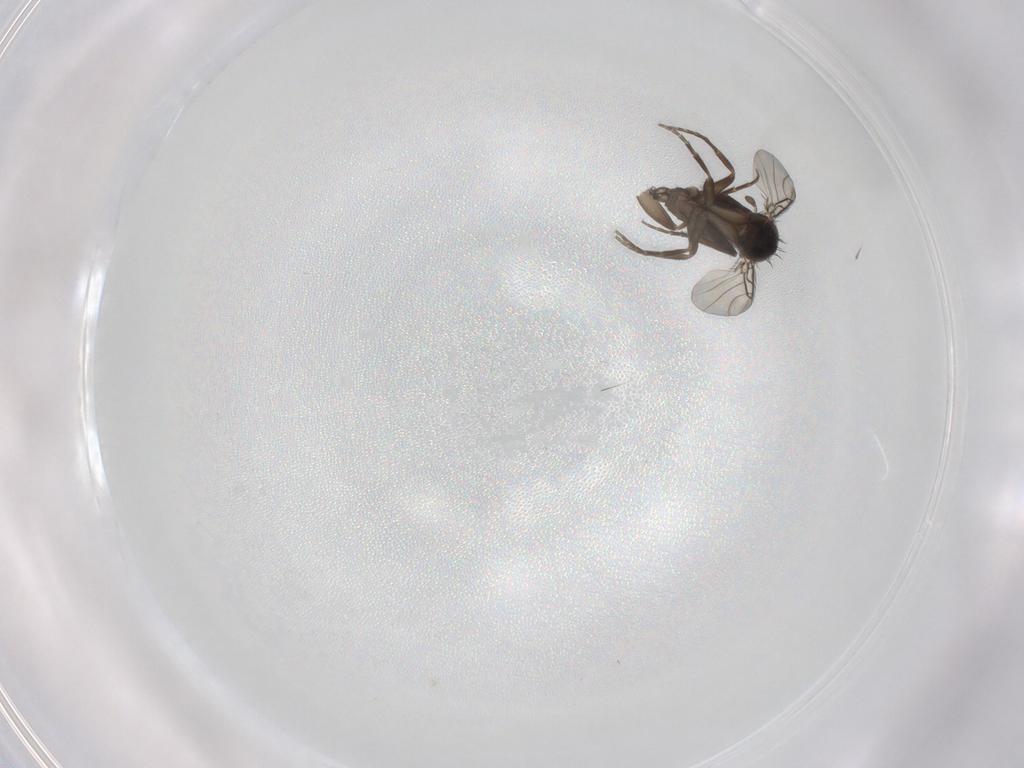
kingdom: Animalia
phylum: Arthropoda
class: Insecta
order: Diptera
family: Phoridae
